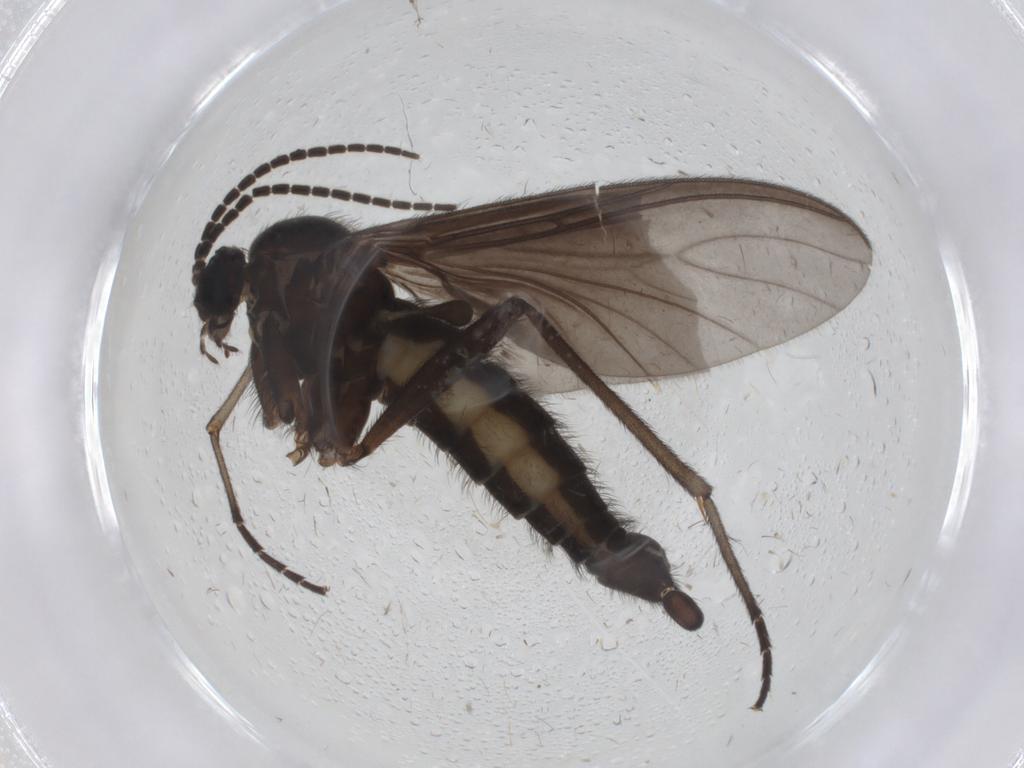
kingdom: Animalia
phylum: Arthropoda
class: Insecta
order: Diptera
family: Sciaridae
